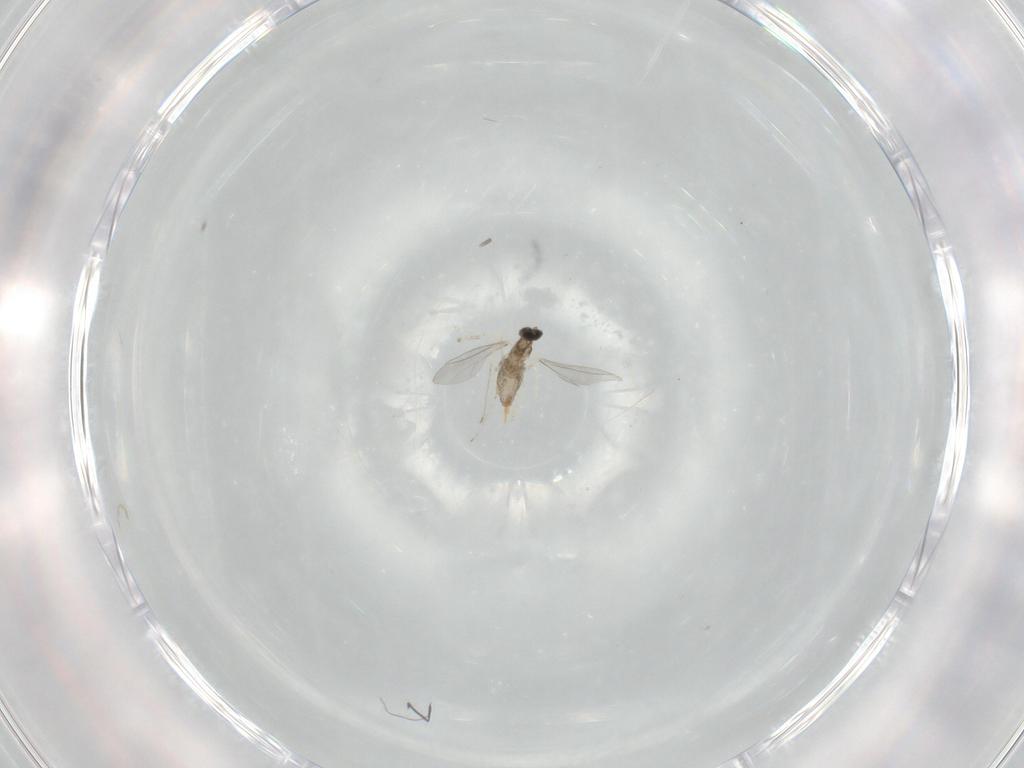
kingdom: Animalia
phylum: Arthropoda
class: Insecta
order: Diptera
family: Cecidomyiidae
